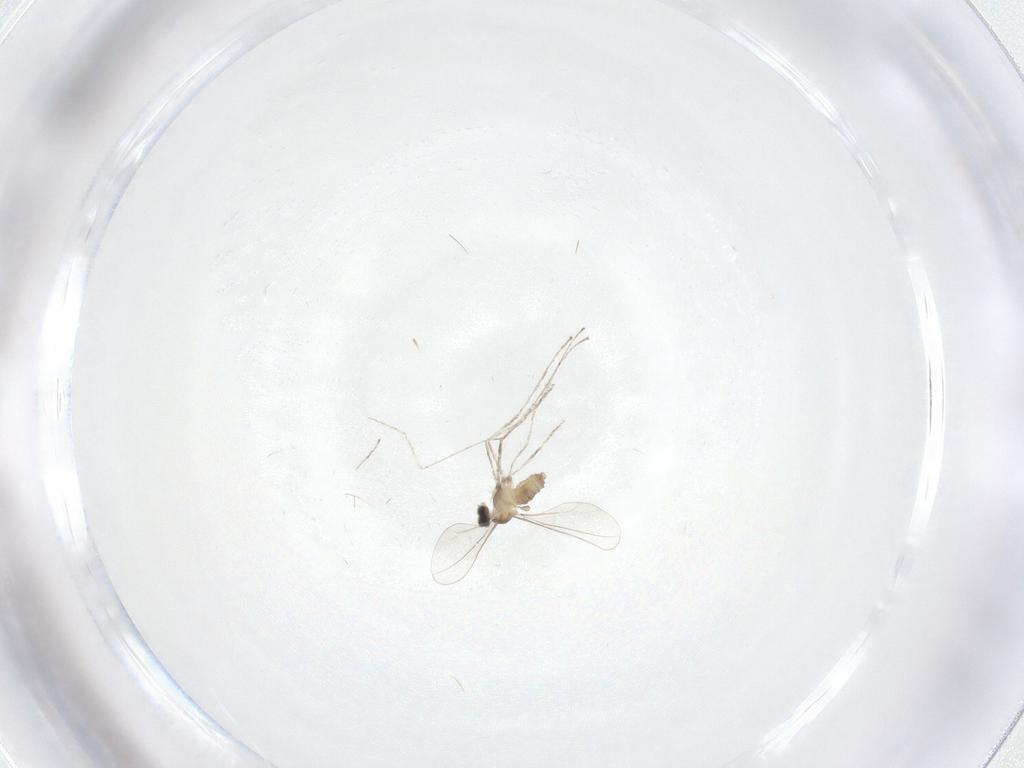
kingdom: Animalia
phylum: Arthropoda
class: Insecta
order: Diptera
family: Cecidomyiidae
